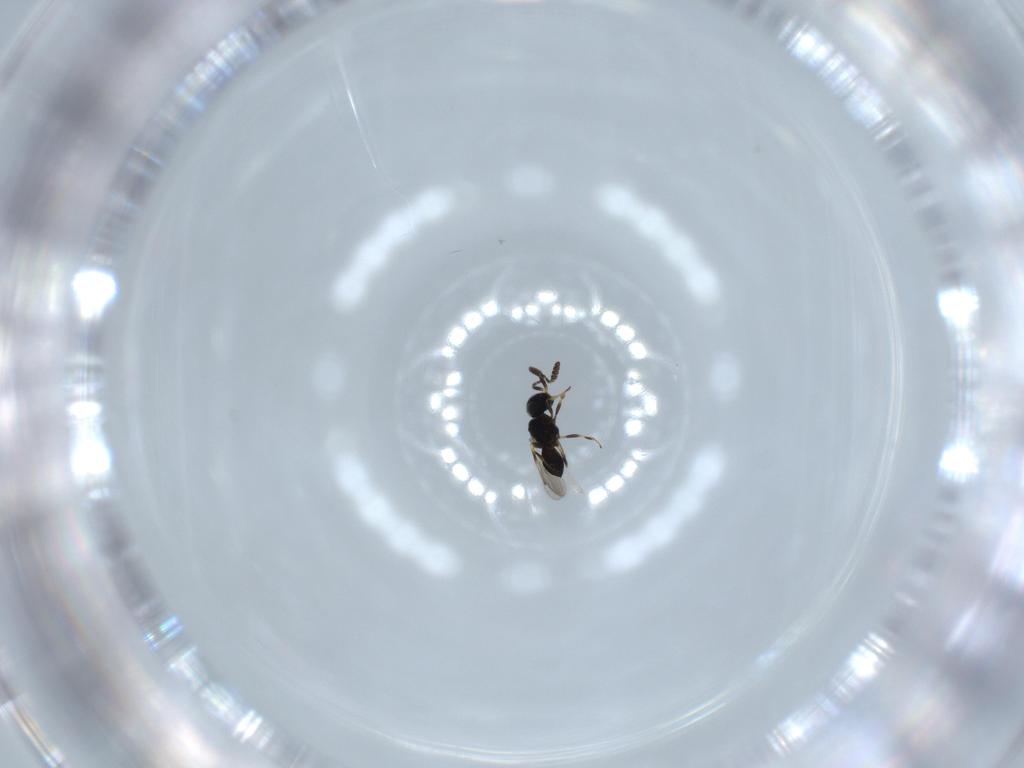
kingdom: Animalia
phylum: Arthropoda
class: Insecta
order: Hymenoptera
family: Scelionidae
